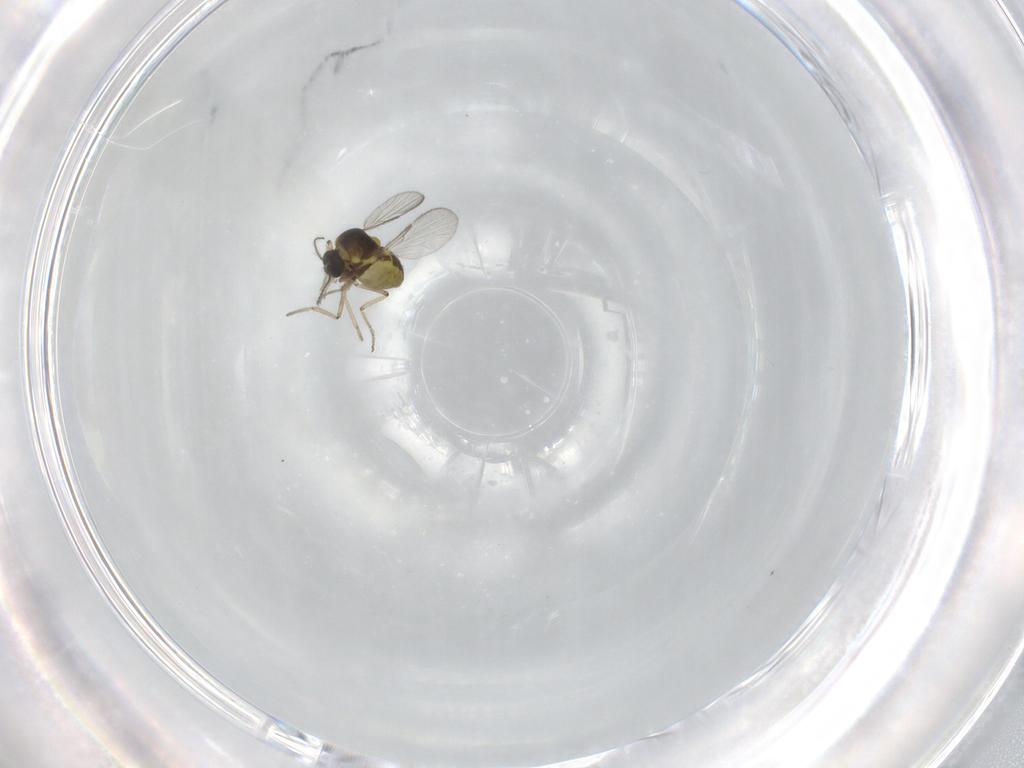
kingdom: Animalia
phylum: Arthropoda
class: Insecta
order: Diptera
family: Ceratopogonidae
